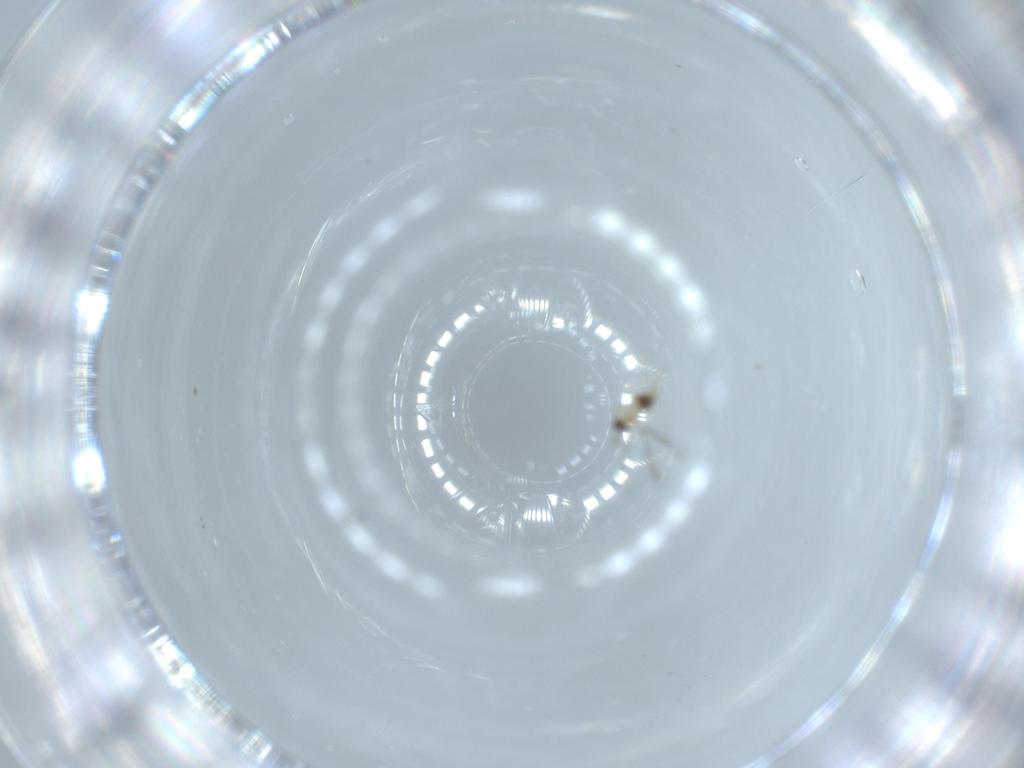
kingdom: Animalia
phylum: Arthropoda
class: Insecta
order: Hymenoptera
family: Mymaridae
